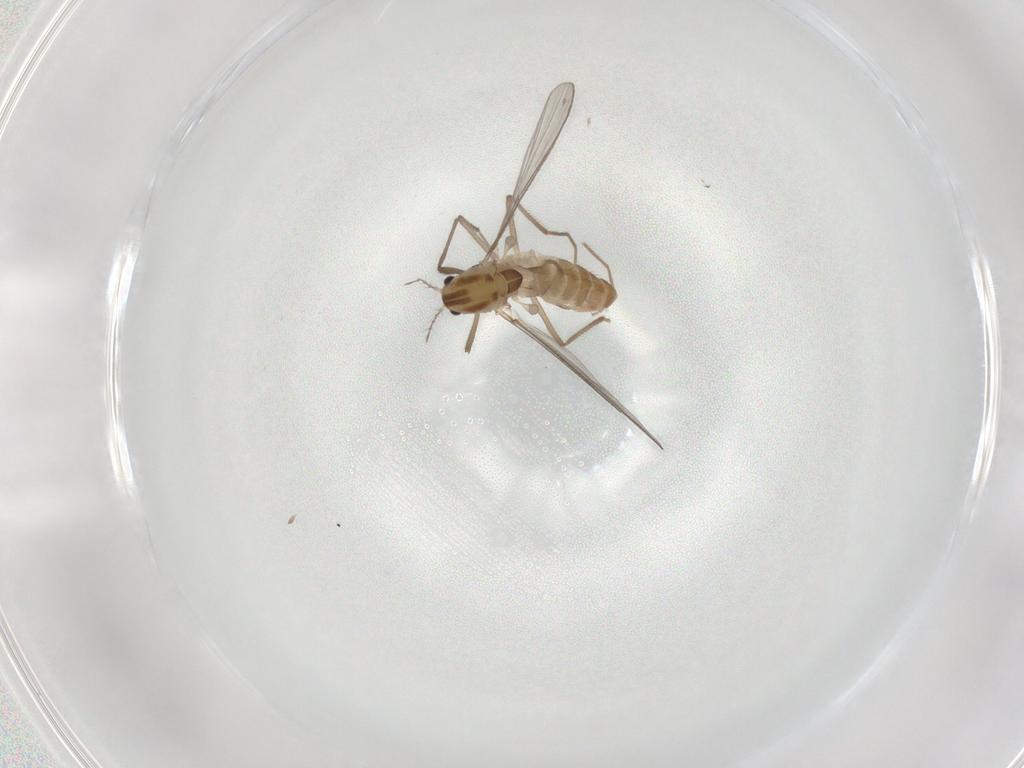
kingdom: Animalia
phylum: Arthropoda
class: Insecta
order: Diptera
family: Chironomidae
